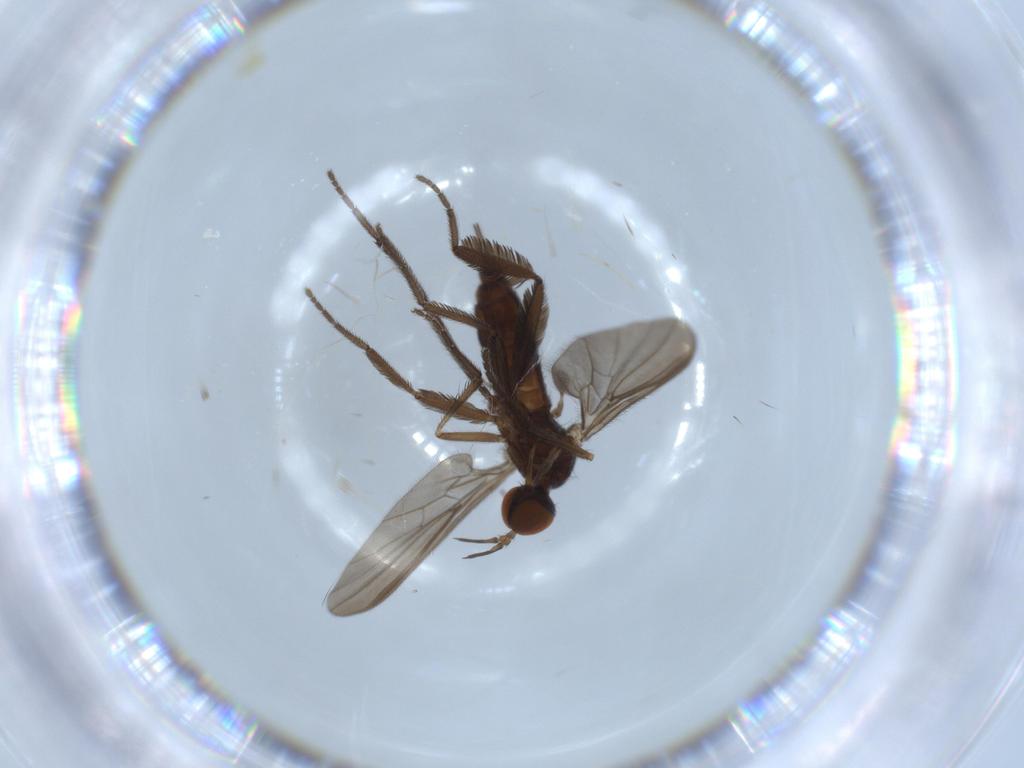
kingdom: Animalia
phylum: Arthropoda
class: Insecta
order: Diptera
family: Empididae
